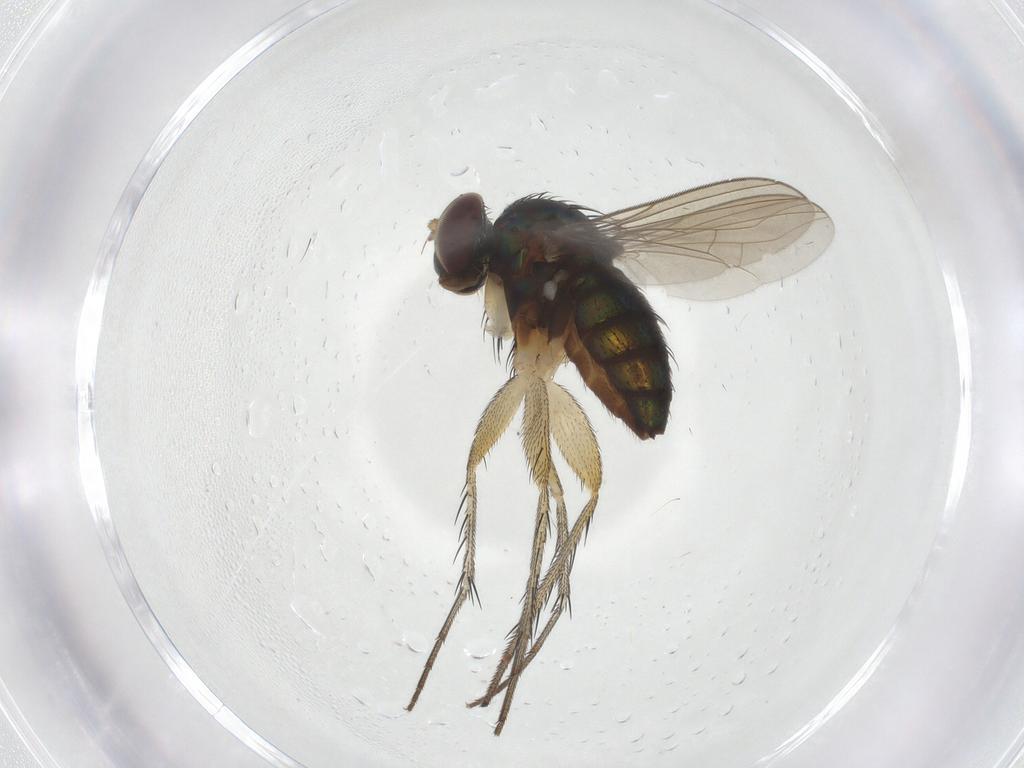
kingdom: Animalia
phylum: Arthropoda
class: Insecta
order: Diptera
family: Dolichopodidae
